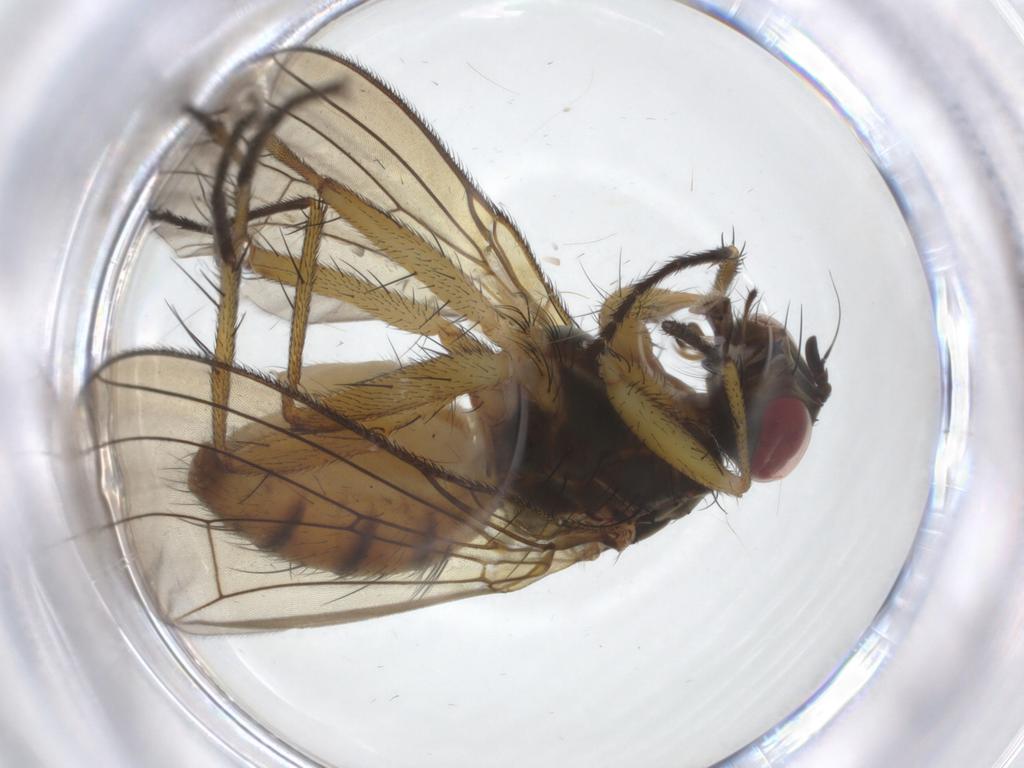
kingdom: Animalia
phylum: Arthropoda
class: Insecta
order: Diptera
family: Muscidae
